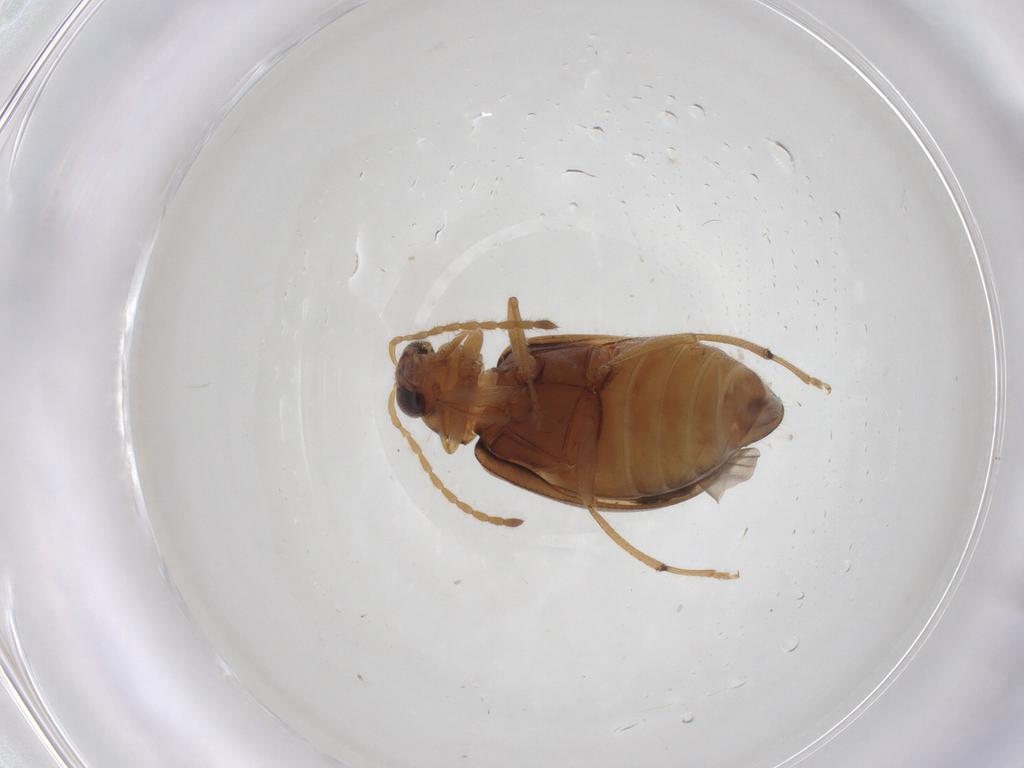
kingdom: Animalia
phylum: Arthropoda
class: Insecta
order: Coleoptera
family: Chrysomelidae
